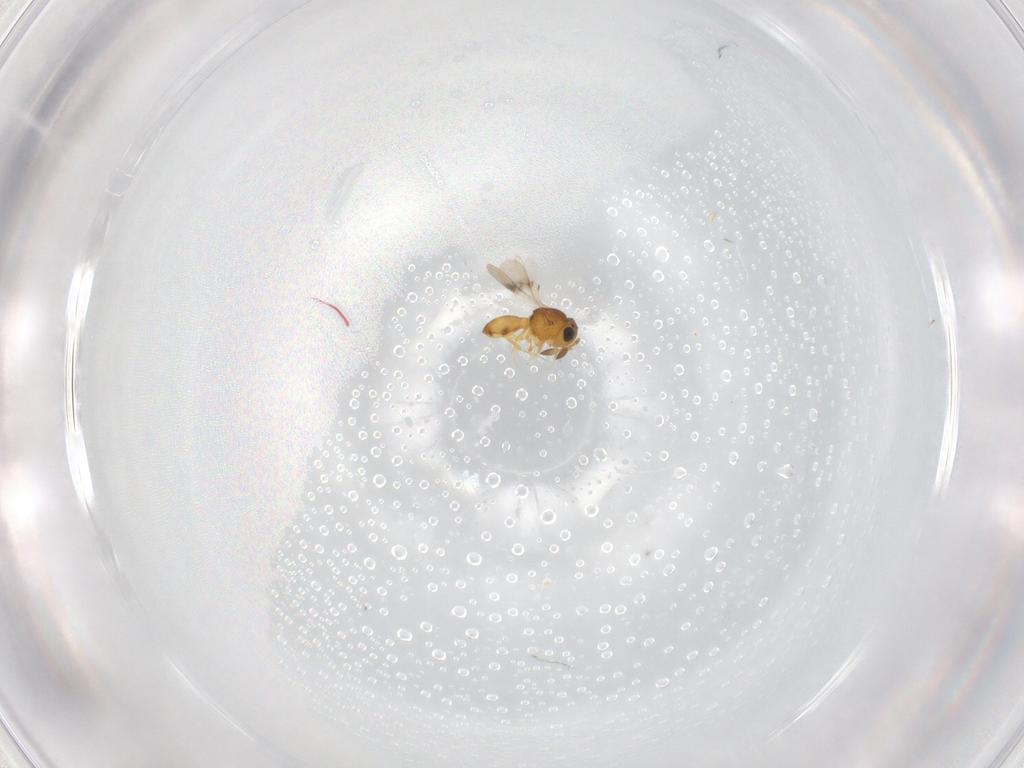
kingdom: Animalia
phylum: Arthropoda
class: Insecta
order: Hymenoptera
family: Scelionidae
